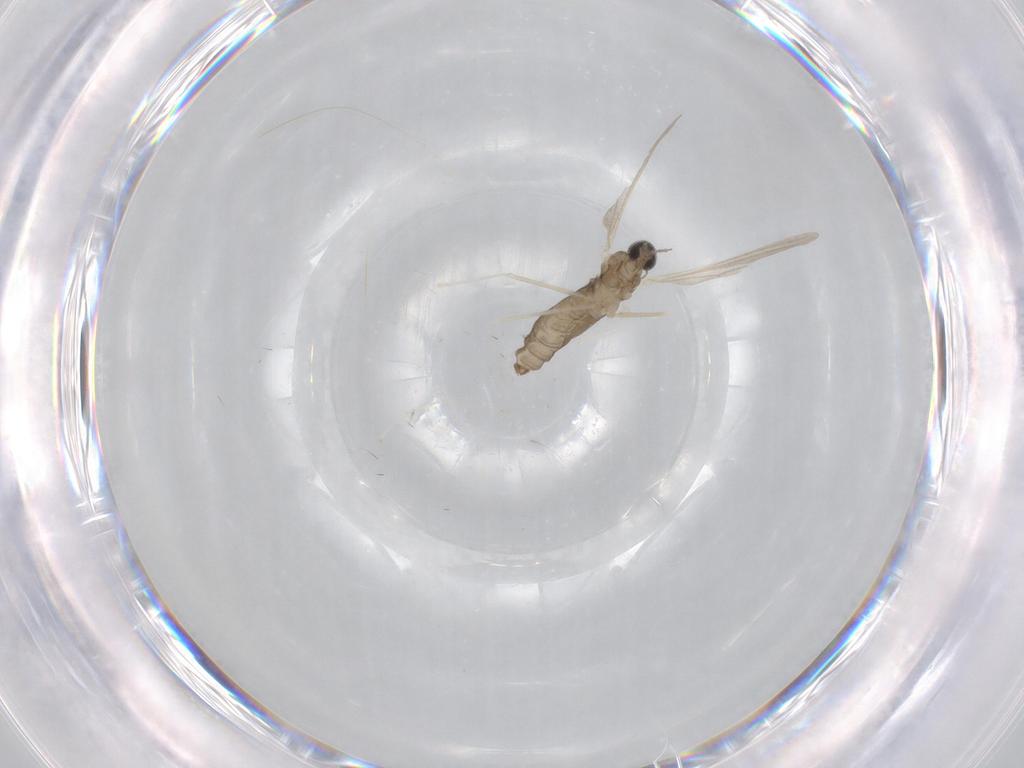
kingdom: Animalia
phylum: Arthropoda
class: Insecta
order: Diptera
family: Cecidomyiidae
